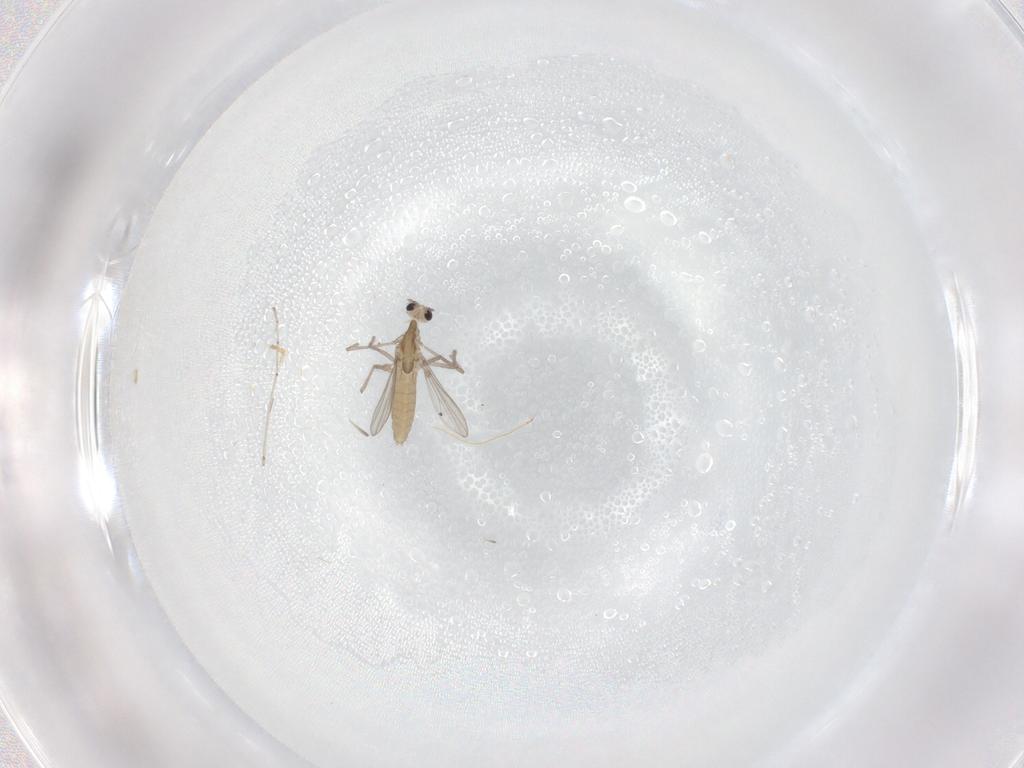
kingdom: Animalia
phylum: Arthropoda
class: Insecta
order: Diptera
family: Cecidomyiidae
